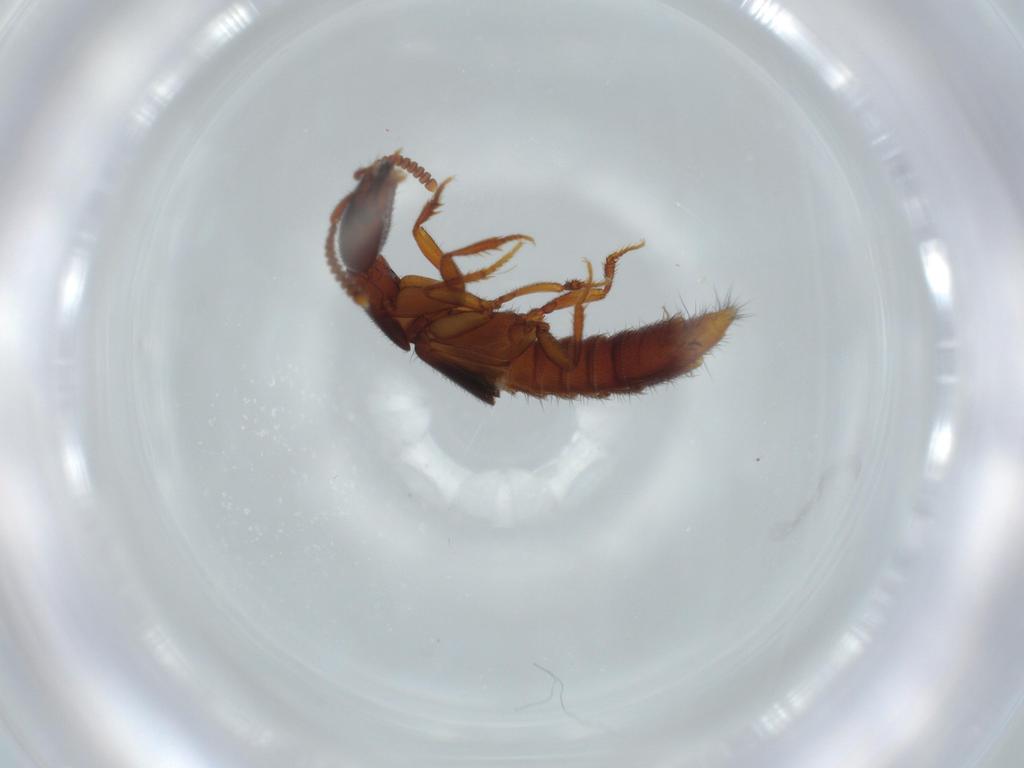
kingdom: Animalia
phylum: Arthropoda
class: Insecta
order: Coleoptera
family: Staphylinidae
